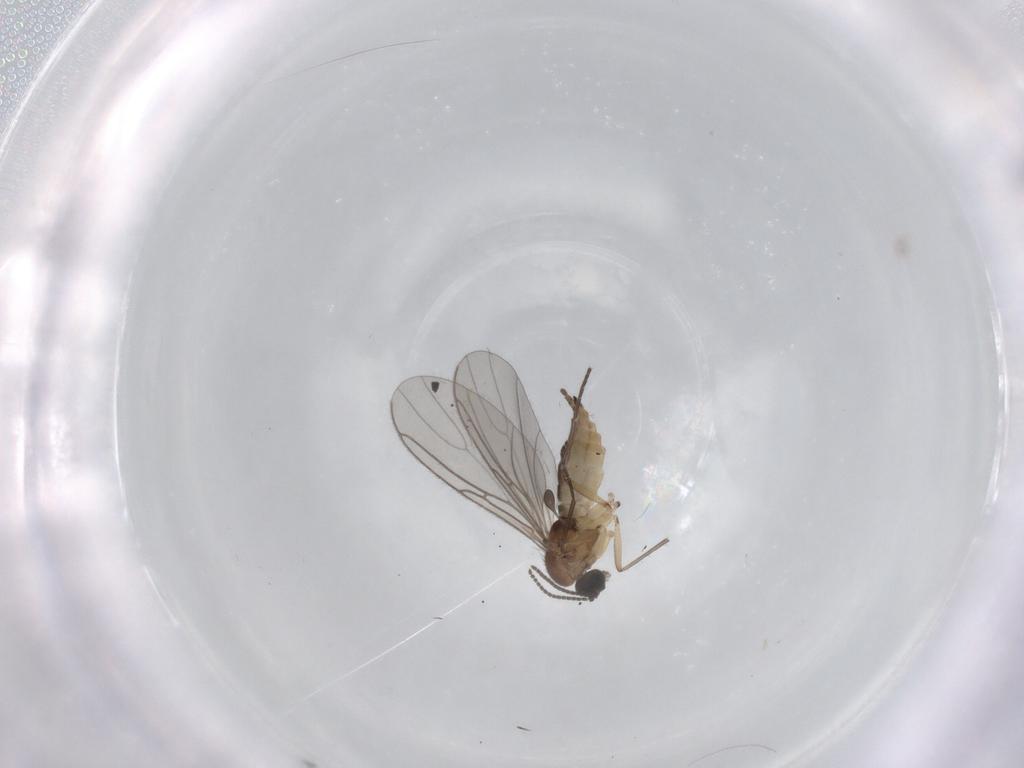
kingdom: Animalia
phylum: Arthropoda
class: Insecta
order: Diptera
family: Sciaridae
